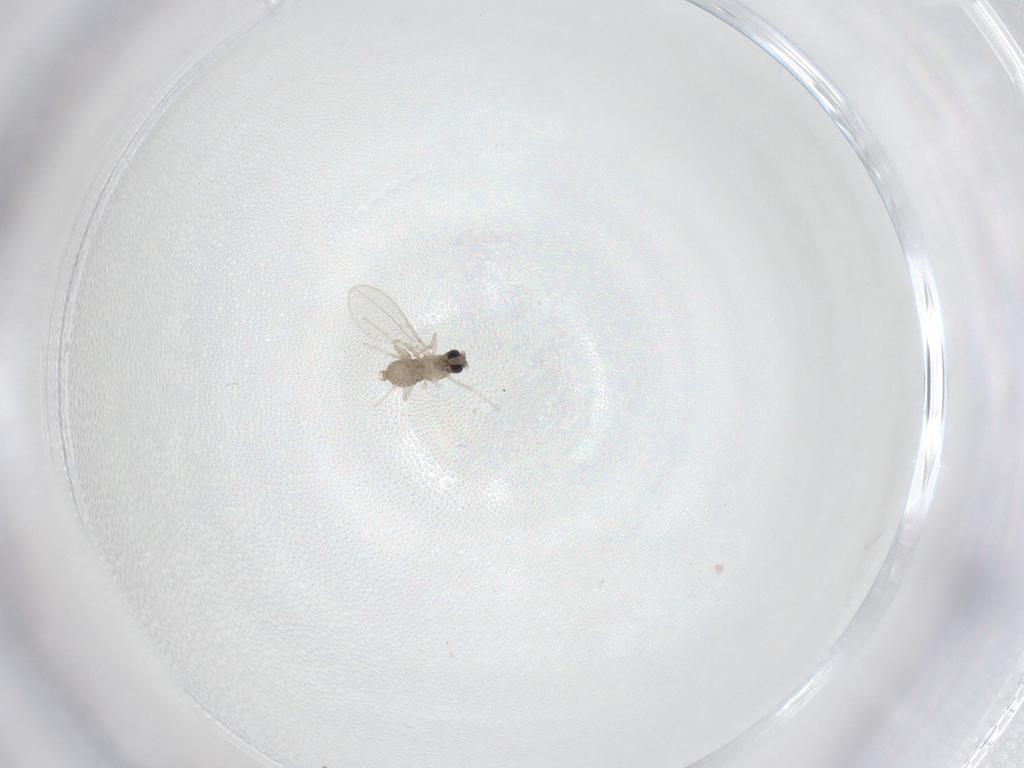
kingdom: Animalia
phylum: Arthropoda
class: Insecta
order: Diptera
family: Cecidomyiidae
